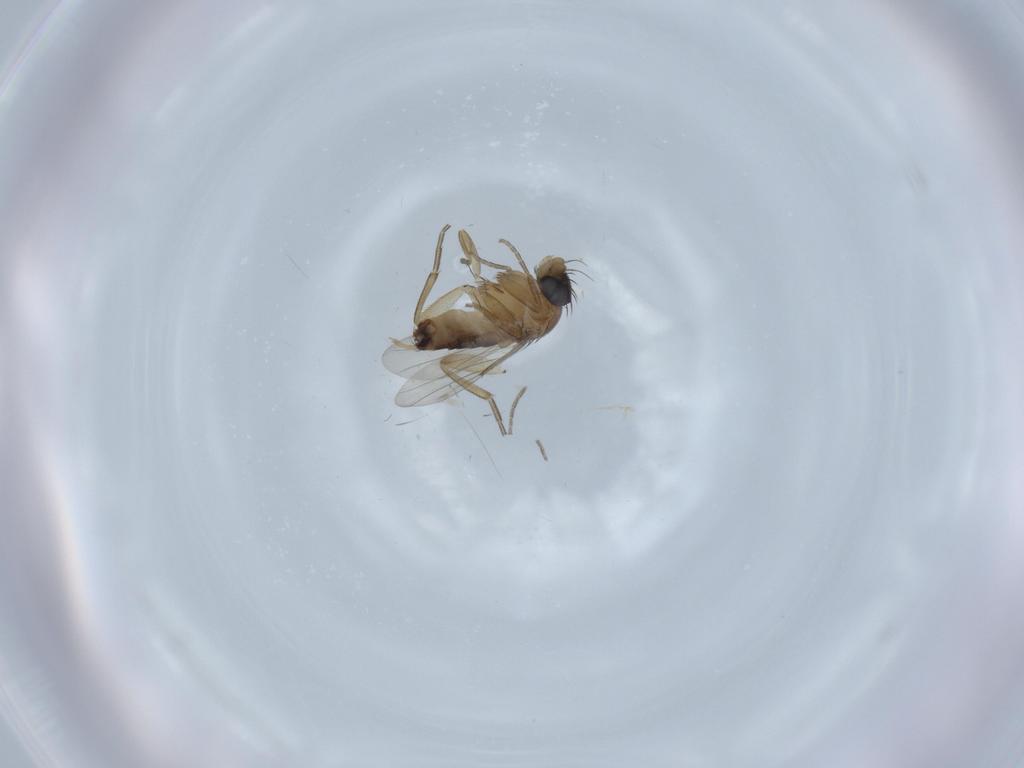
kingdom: Animalia
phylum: Arthropoda
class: Insecta
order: Diptera
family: Phoridae
